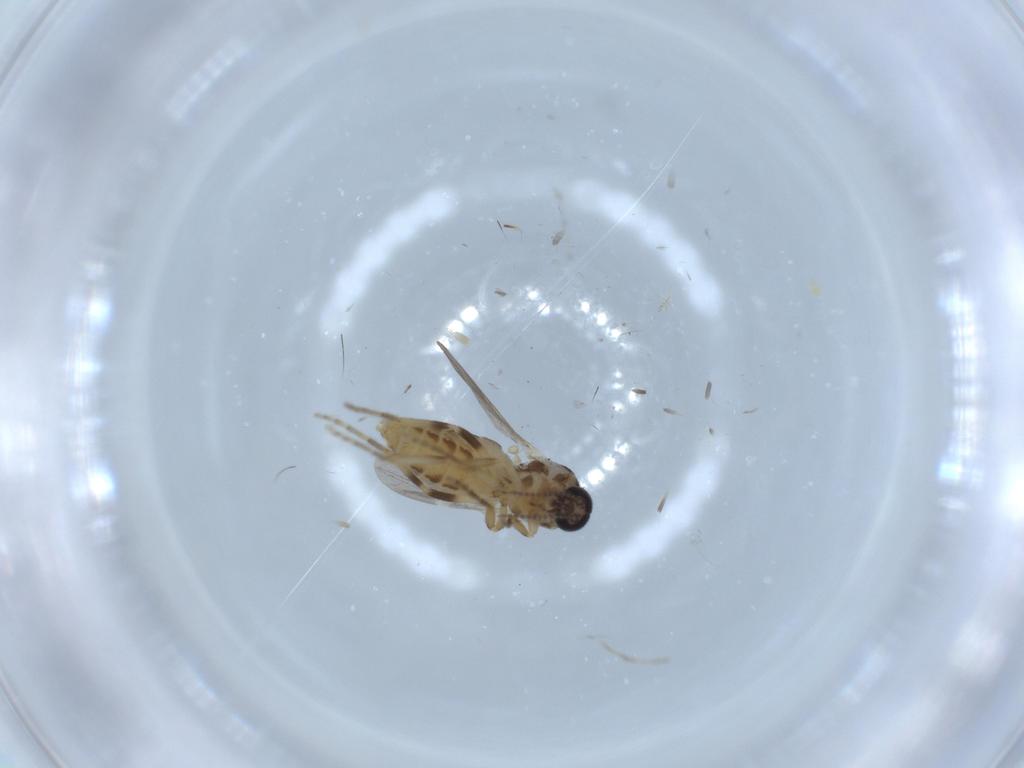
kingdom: Animalia
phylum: Arthropoda
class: Insecta
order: Diptera
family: Ceratopogonidae
